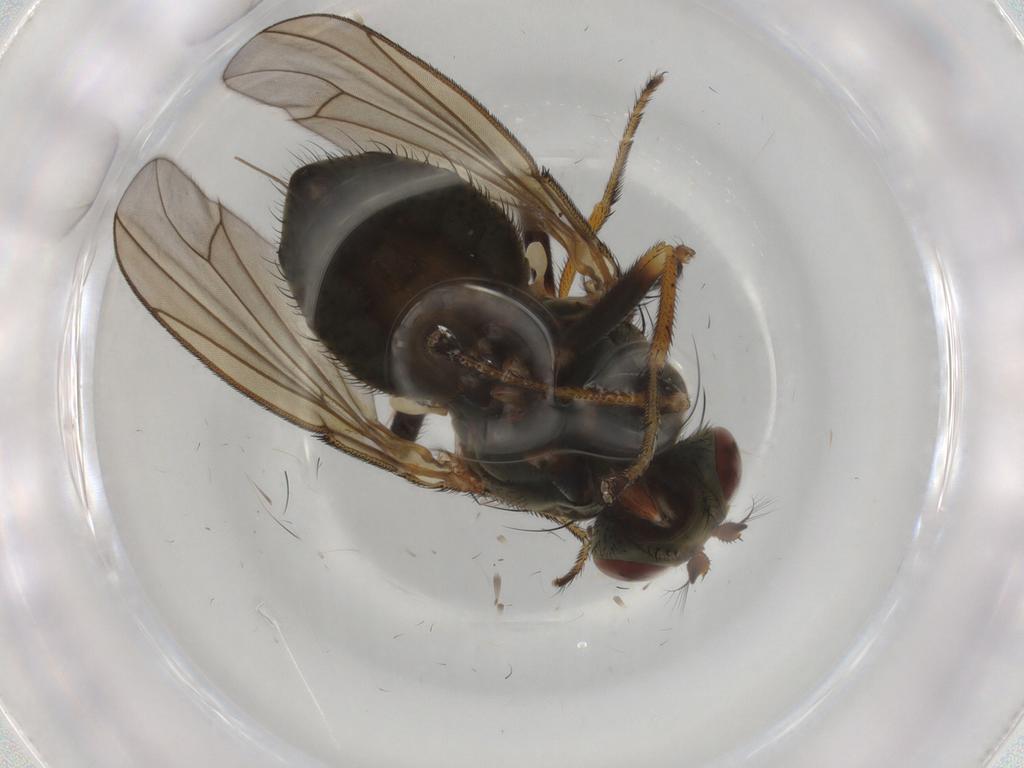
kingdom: Animalia
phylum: Arthropoda
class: Insecta
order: Diptera
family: Ephydridae
